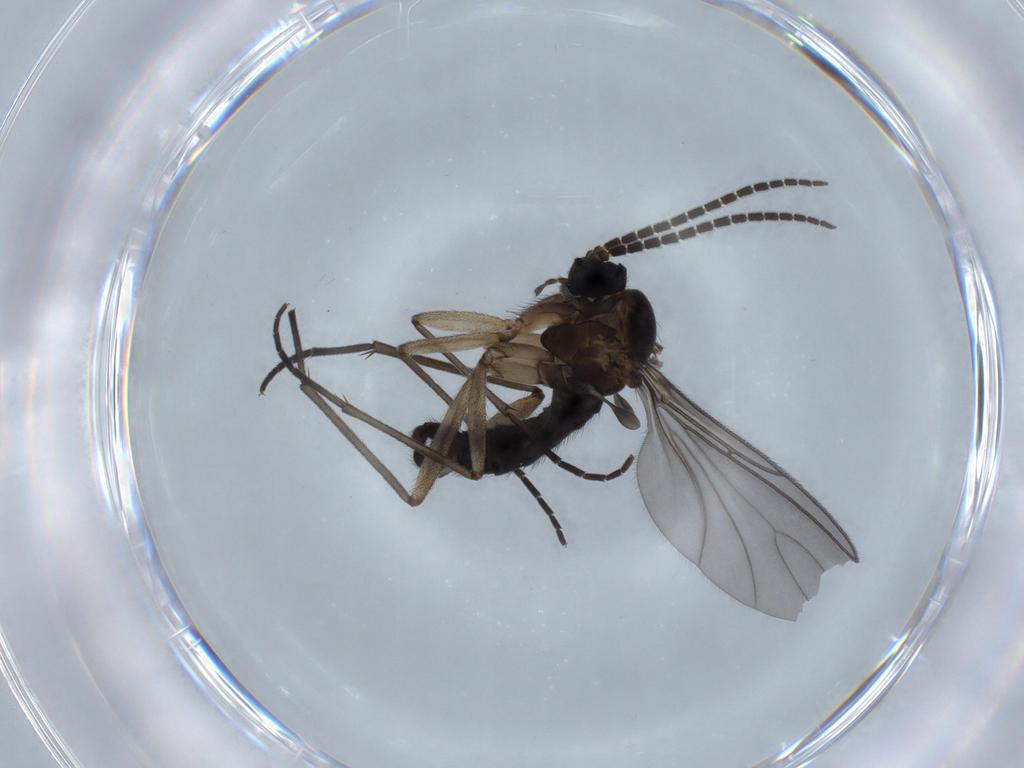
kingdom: Animalia
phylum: Arthropoda
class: Insecta
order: Diptera
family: Sciaridae
